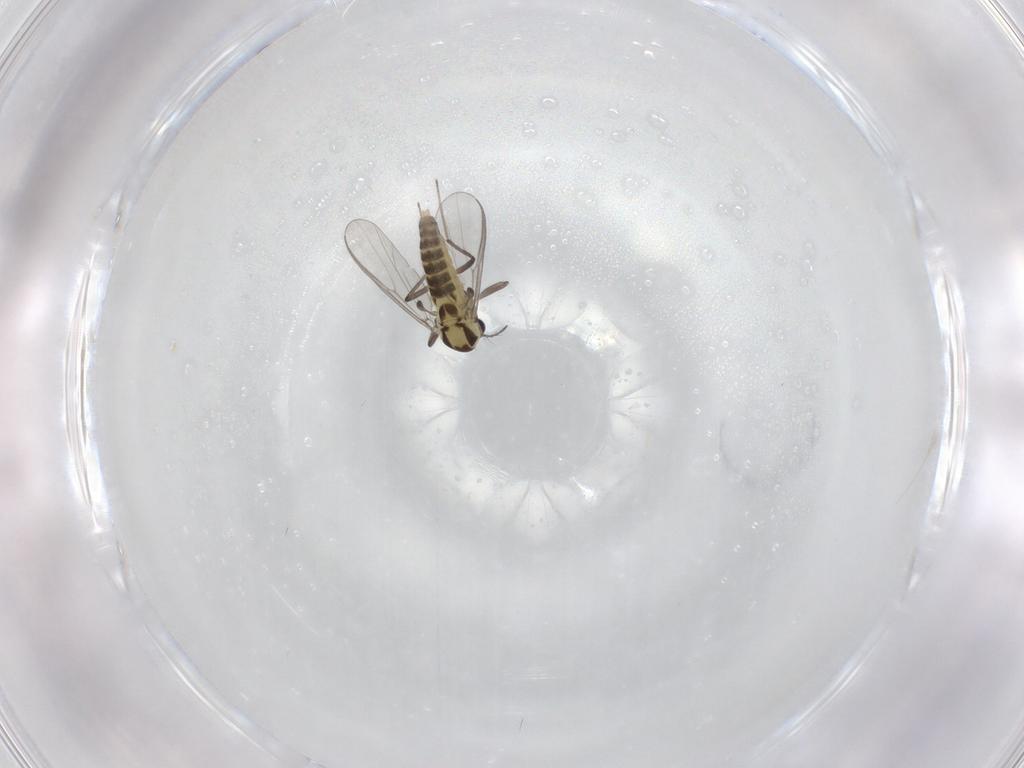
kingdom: Animalia
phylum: Arthropoda
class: Insecta
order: Diptera
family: Chironomidae
